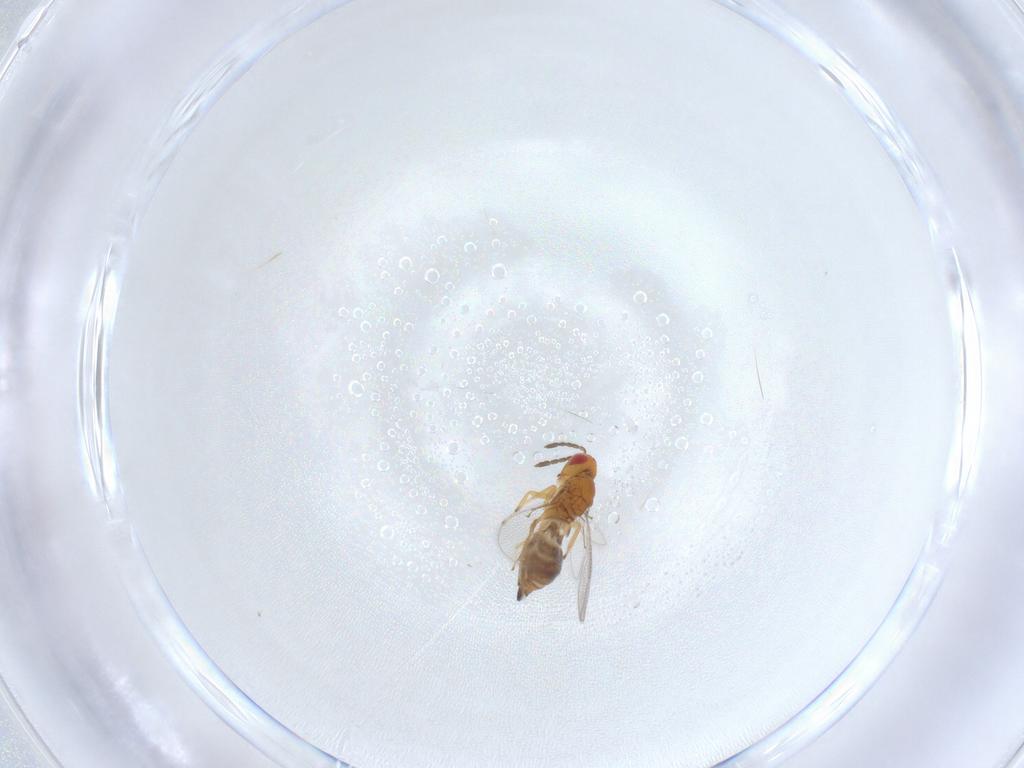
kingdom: Animalia
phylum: Arthropoda
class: Insecta
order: Hymenoptera
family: Eulophidae
